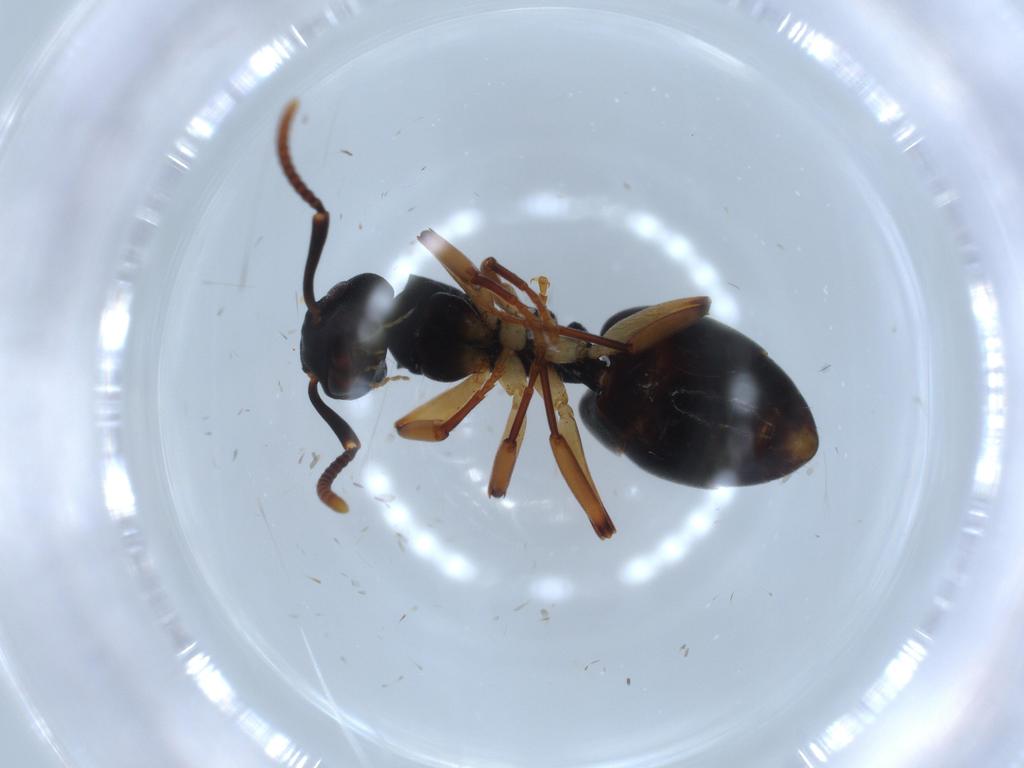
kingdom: Animalia
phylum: Arthropoda
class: Insecta
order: Hymenoptera
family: Formicidae
